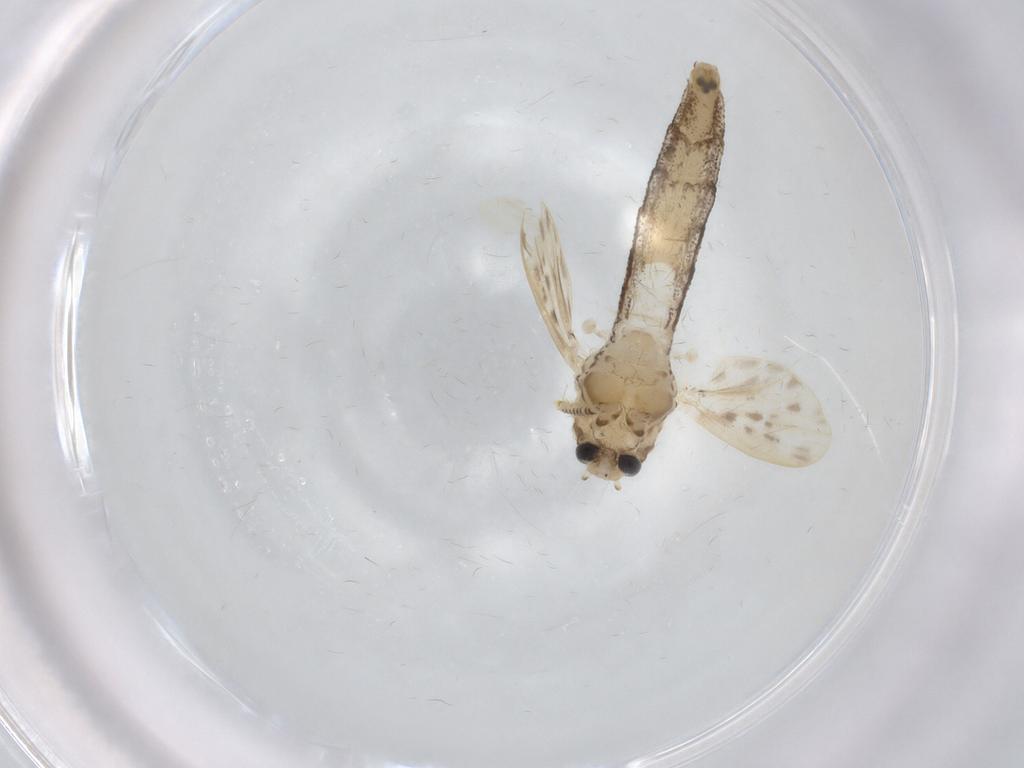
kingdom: Animalia
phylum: Arthropoda
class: Insecta
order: Diptera
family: Chaoboridae
